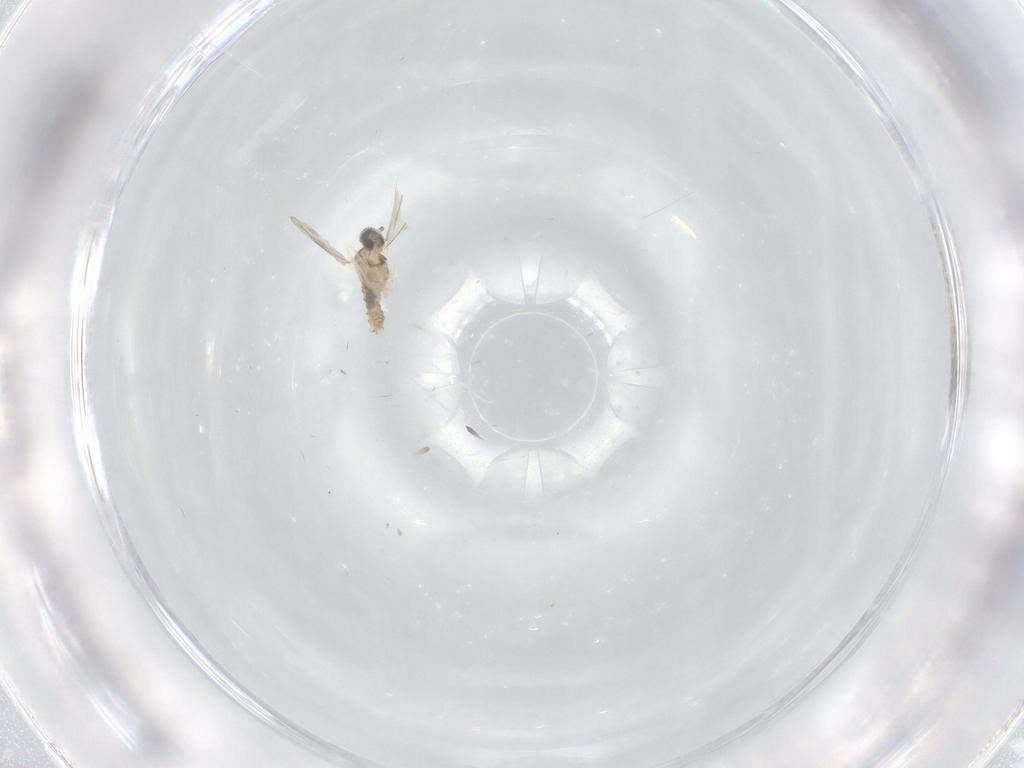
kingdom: Animalia
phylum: Arthropoda
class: Insecta
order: Diptera
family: Cecidomyiidae
